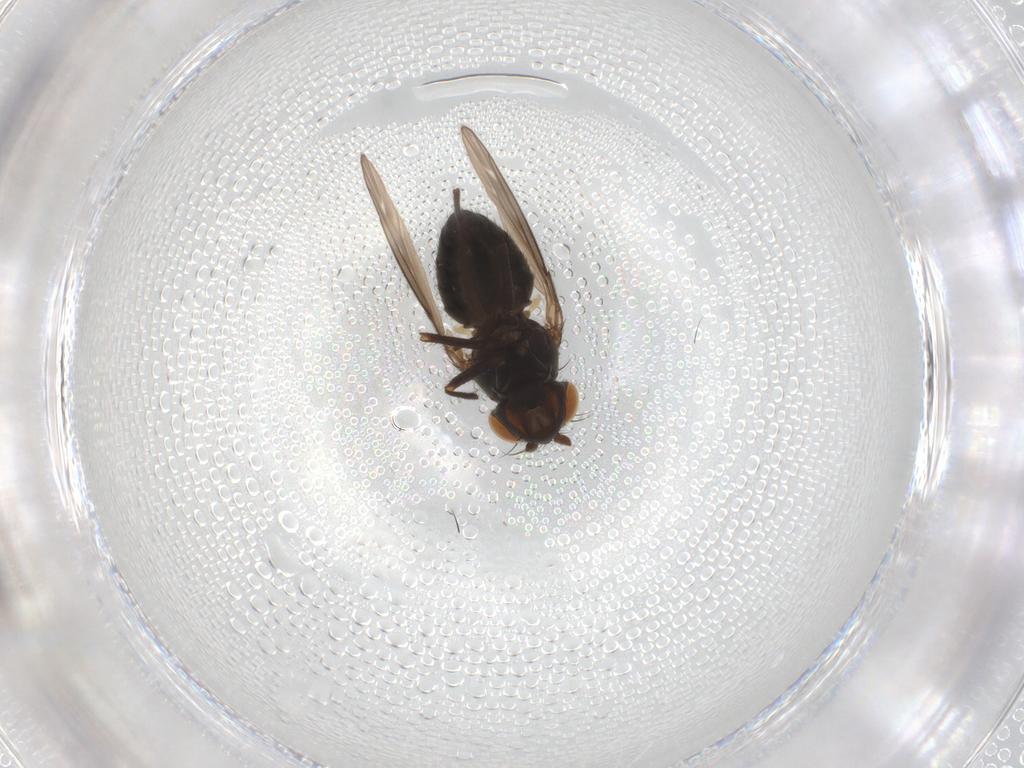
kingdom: Animalia
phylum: Arthropoda
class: Insecta
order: Diptera
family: Ephydridae
